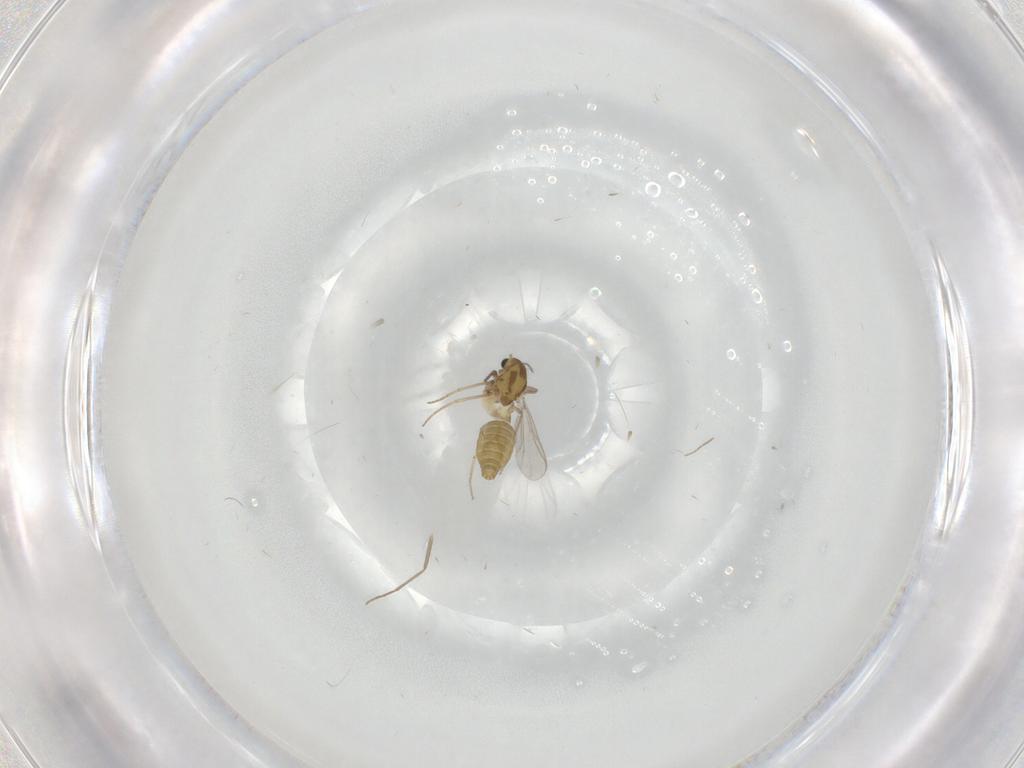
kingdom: Animalia
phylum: Arthropoda
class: Insecta
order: Diptera
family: Chironomidae
